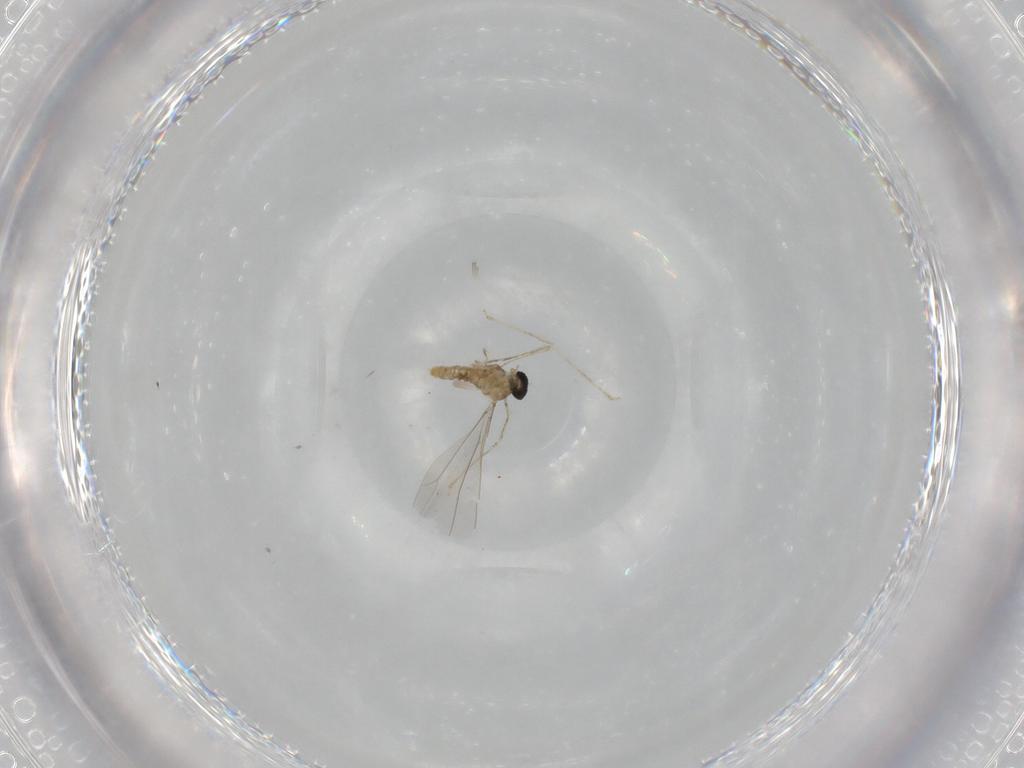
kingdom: Animalia
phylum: Arthropoda
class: Insecta
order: Diptera
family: Cecidomyiidae
